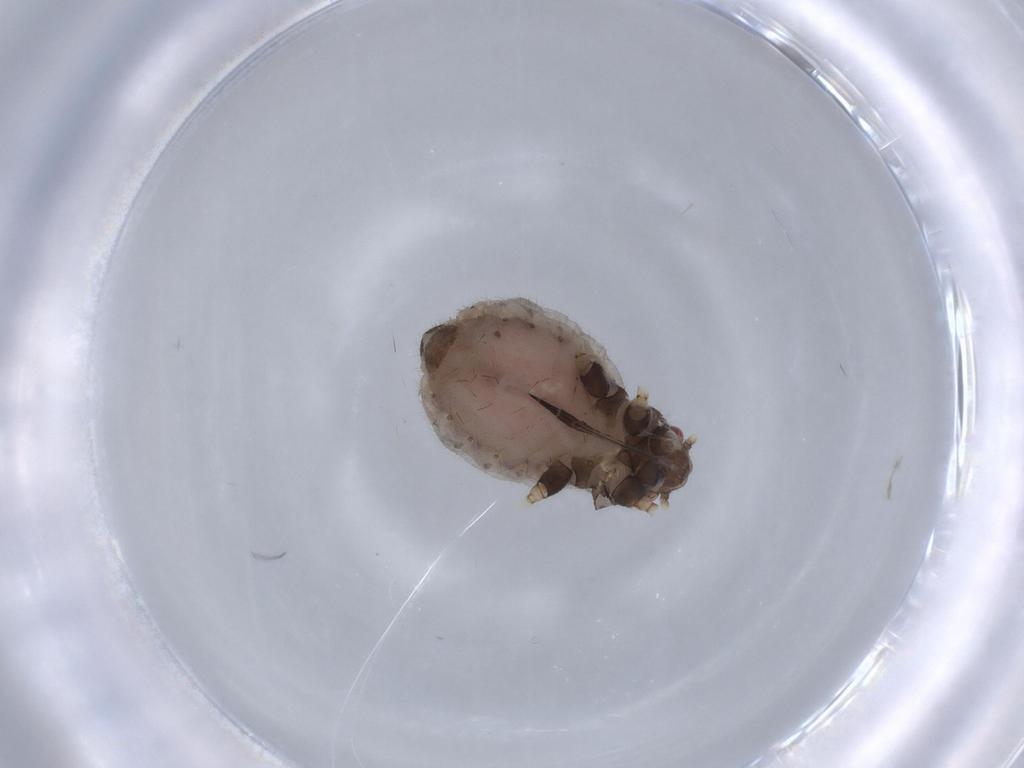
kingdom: Animalia
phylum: Arthropoda
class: Insecta
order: Hemiptera
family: Aphididae
